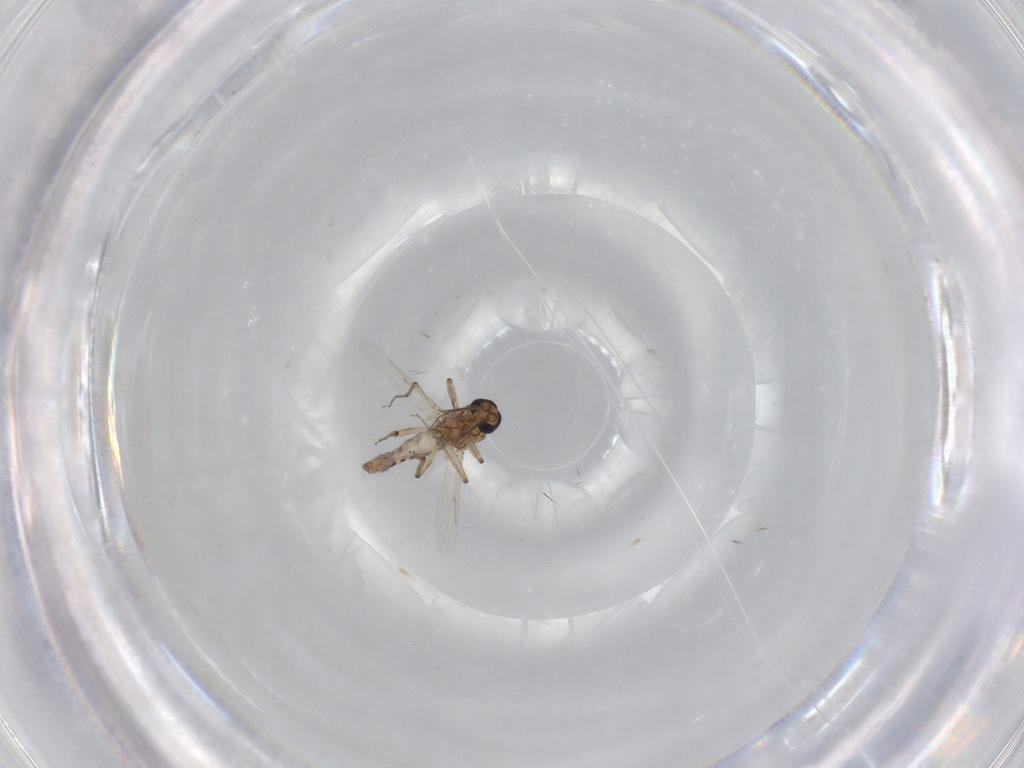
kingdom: Animalia
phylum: Arthropoda
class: Insecta
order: Diptera
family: Ceratopogonidae
